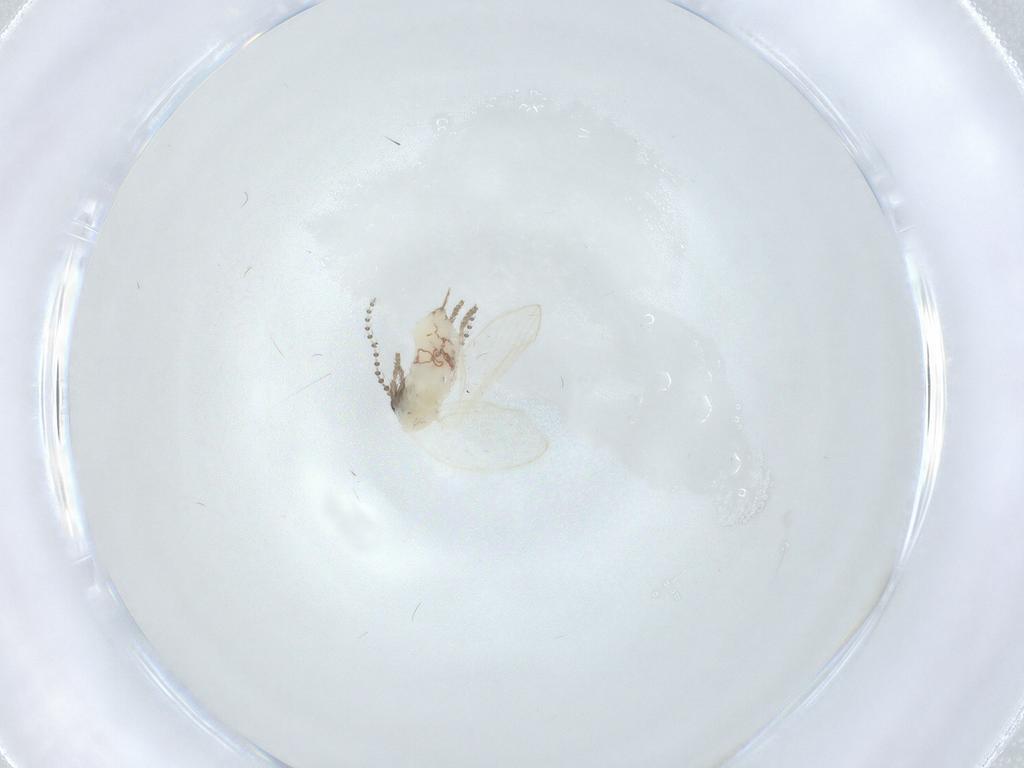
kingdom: Animalia
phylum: Arthropoda
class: Insecta
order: Diptera
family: Psychodidae
